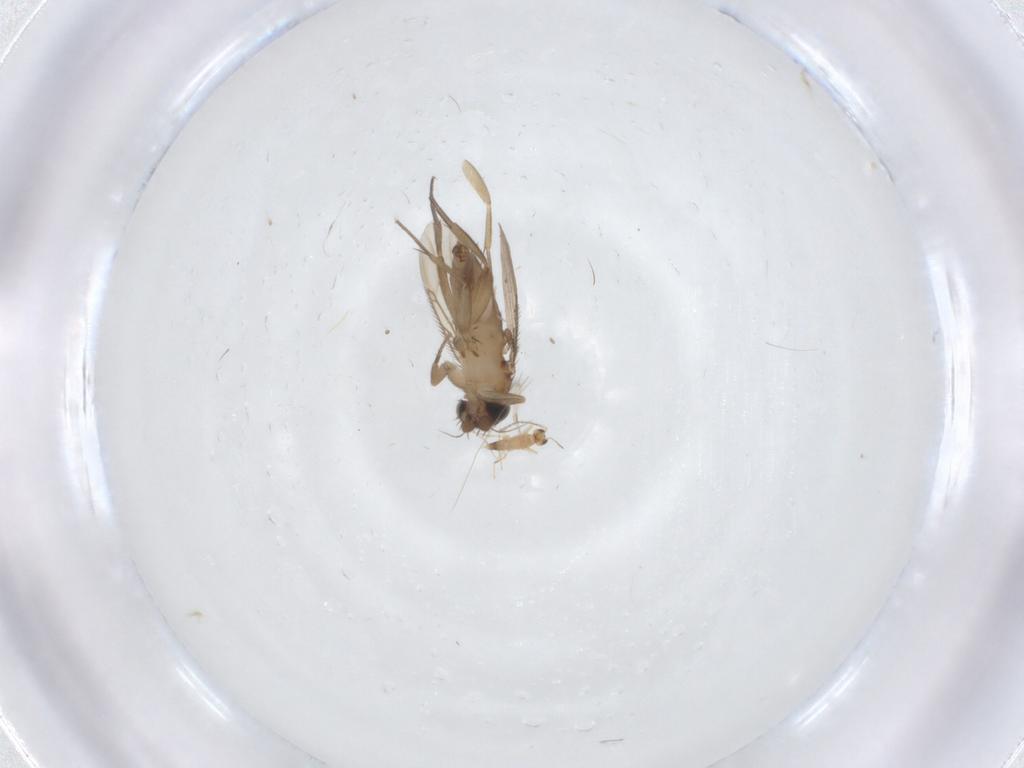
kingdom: Animalia
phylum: Arthropoda
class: Insecta
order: Diptera
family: Phoridae
